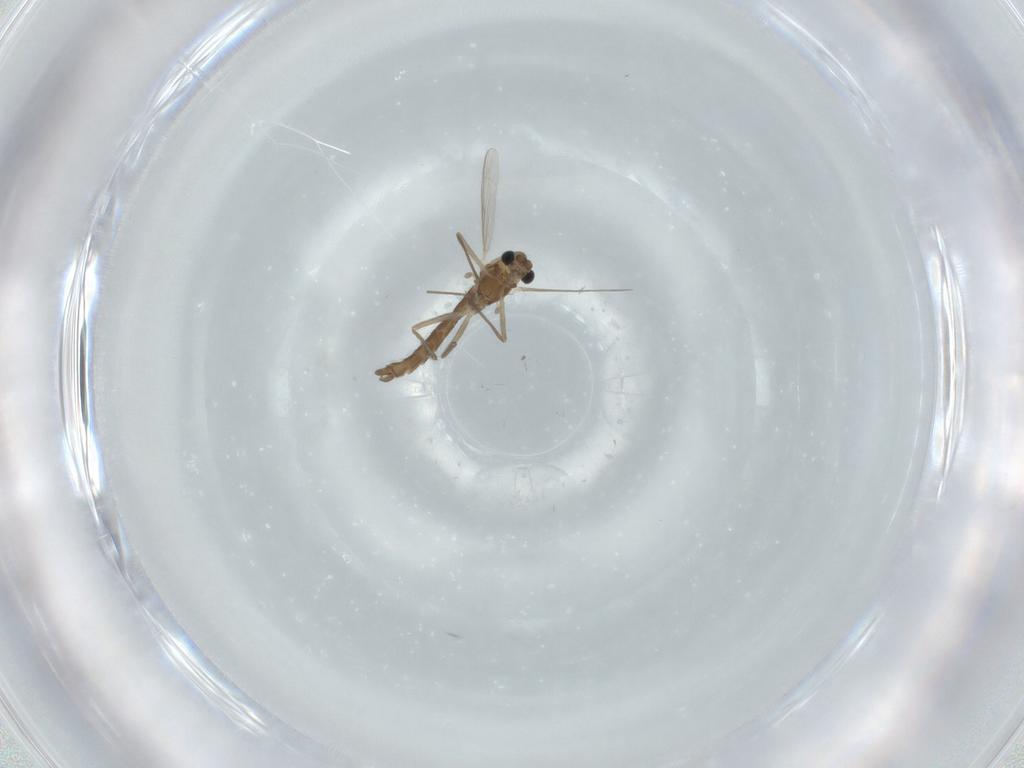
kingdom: Animalia
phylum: Arthropoda
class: Insecta
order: Diptera
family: Chironomidae
